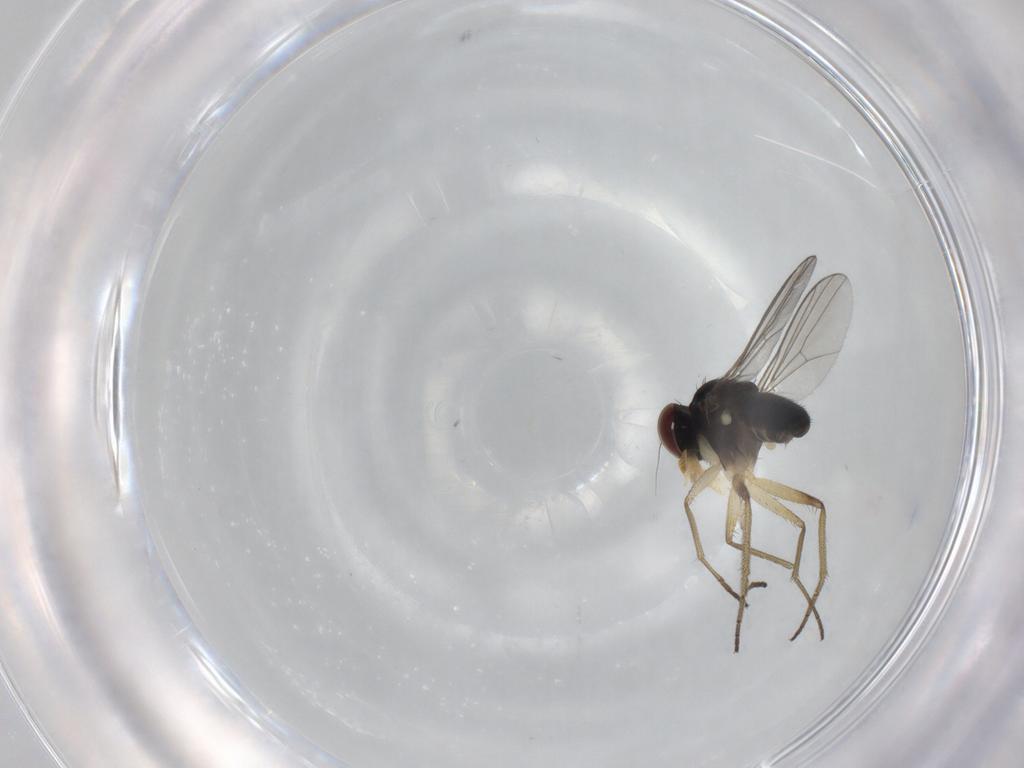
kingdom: Animalia
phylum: Arthropoda
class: Insecta
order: Diptera
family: Dolichopodidae
